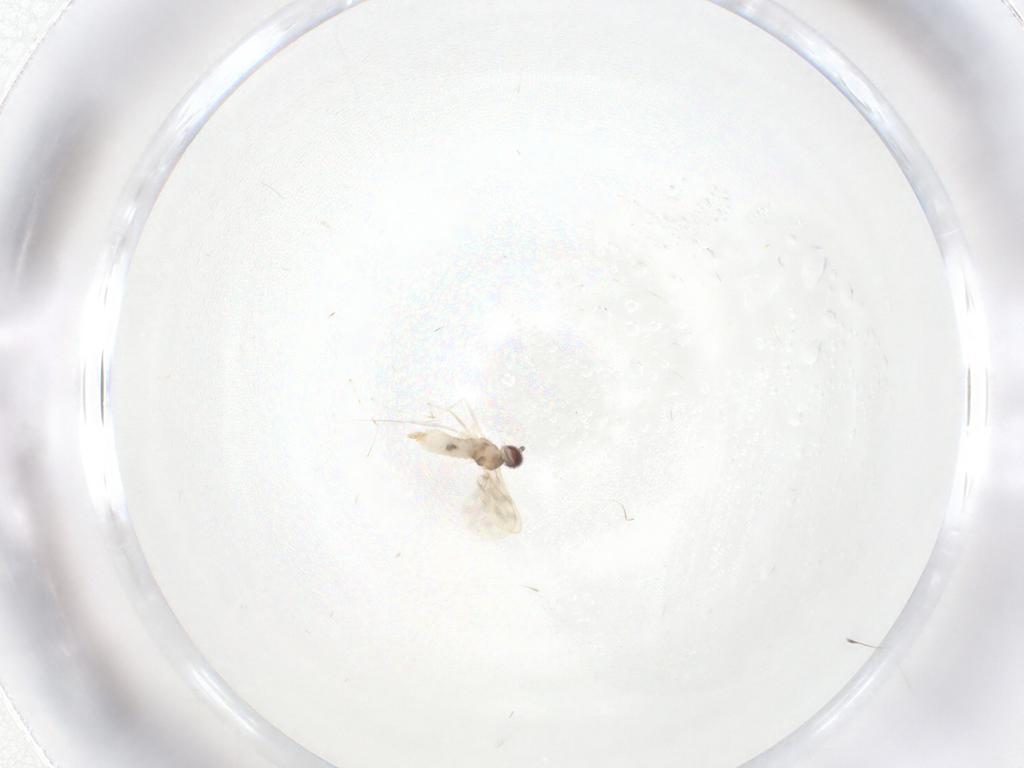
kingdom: Animalia
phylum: Arthropoda
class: Insecta
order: Diptera
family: Cecidomyiidae
